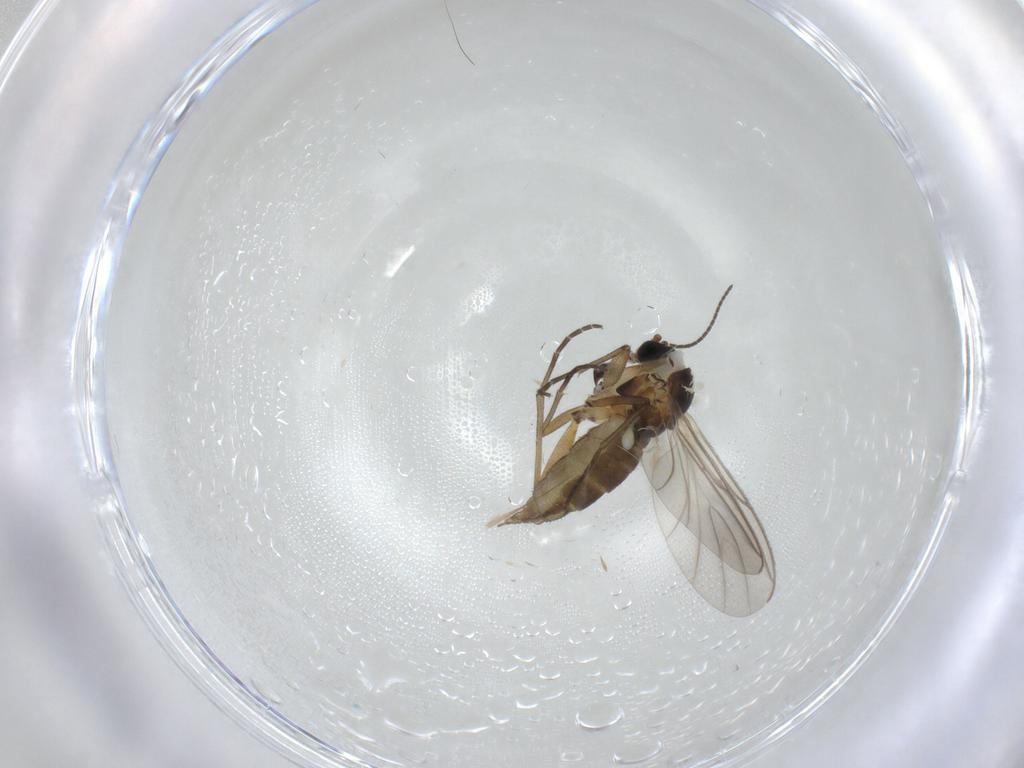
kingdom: Animalia
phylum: Arthropoda
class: Insecta
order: Diptera
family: Cecidomyiidae
